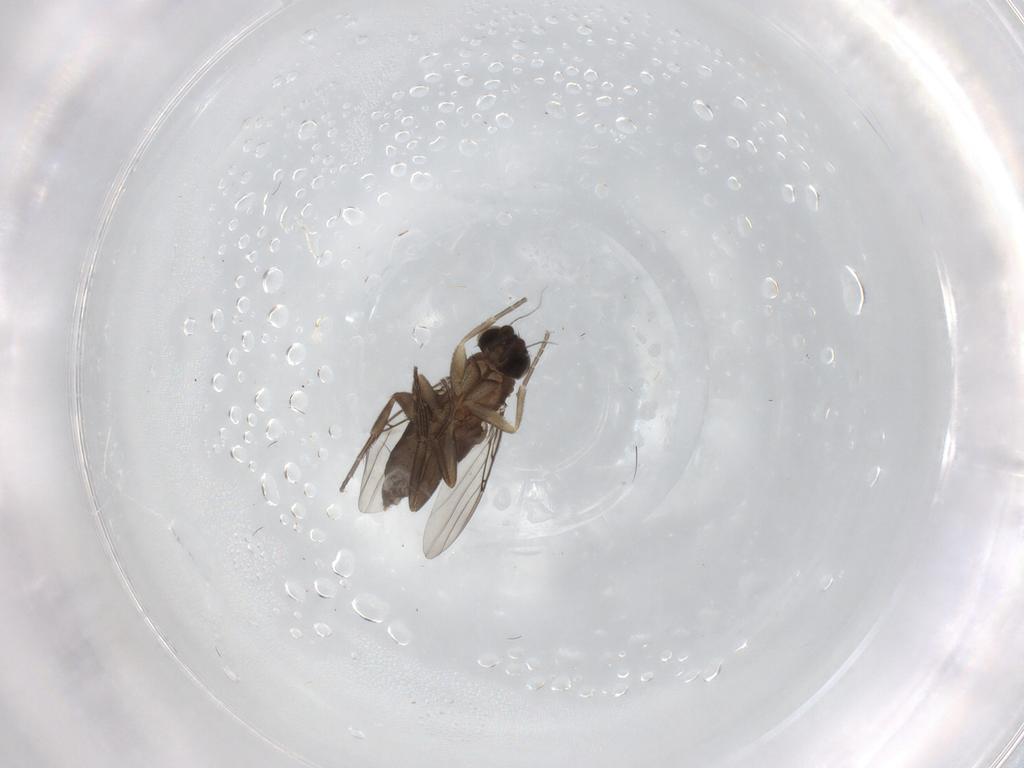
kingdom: Animalia
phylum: Arthropoda
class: Insecta
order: Diptera
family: Phoridae
